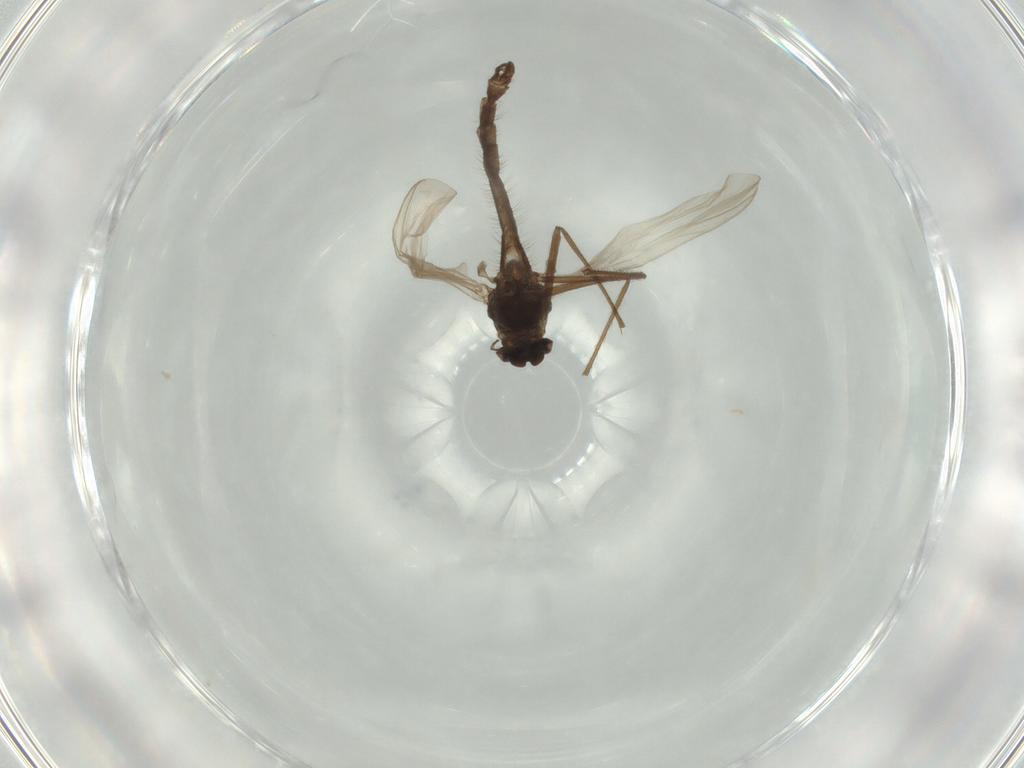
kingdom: Animalia
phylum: Arthropoda
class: Insecta
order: Diptera
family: Chironomidae
